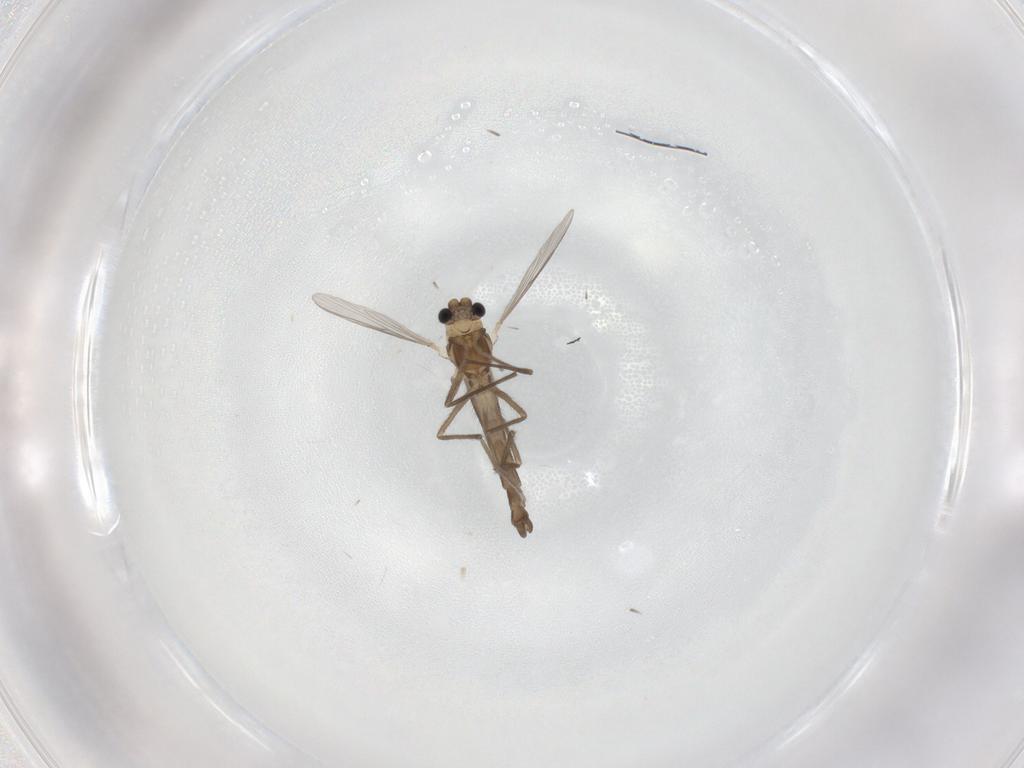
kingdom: Animalia
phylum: Arthropoda
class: Insecta
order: Diptera
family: Chironomidae
